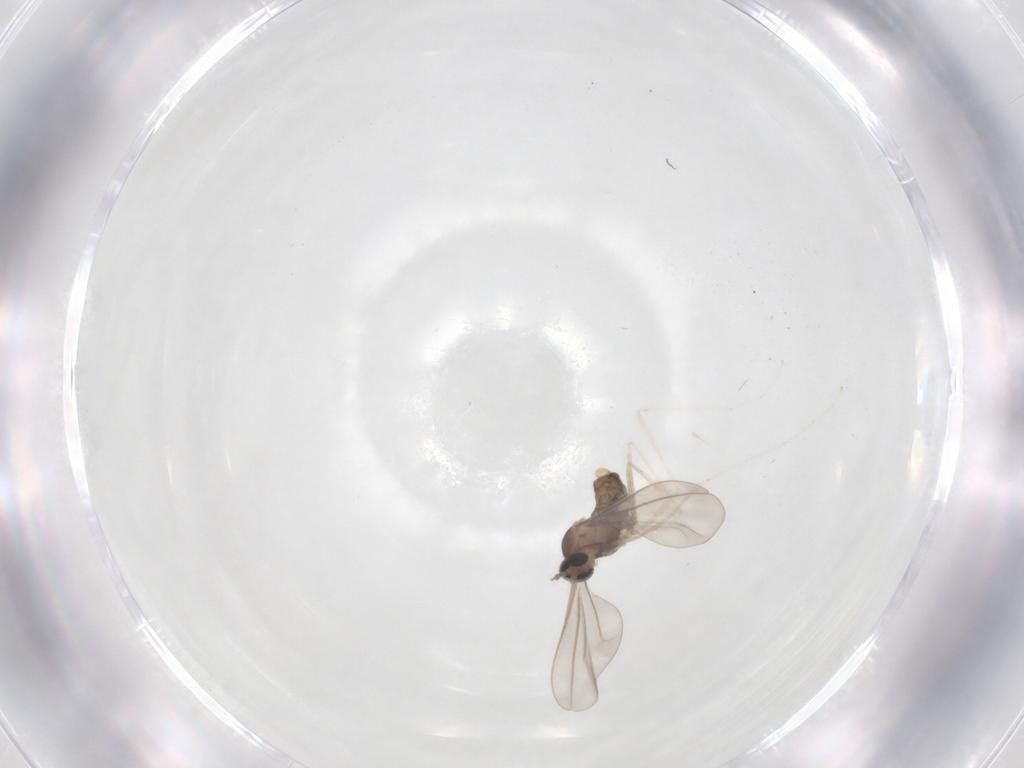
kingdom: Animalia
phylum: Arthropoda
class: Insecta
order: Diptera
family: Cecidomyiidae
